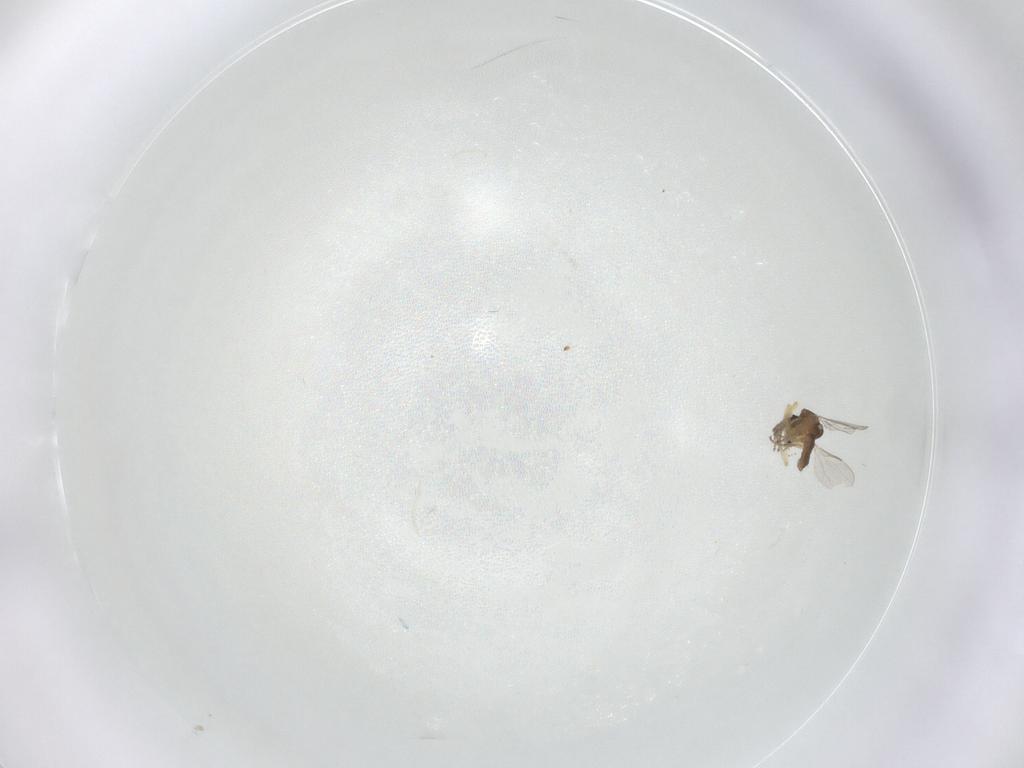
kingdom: Animalia
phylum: Arthropoda
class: Insecta
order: Diptera
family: Ceratopogonidae
